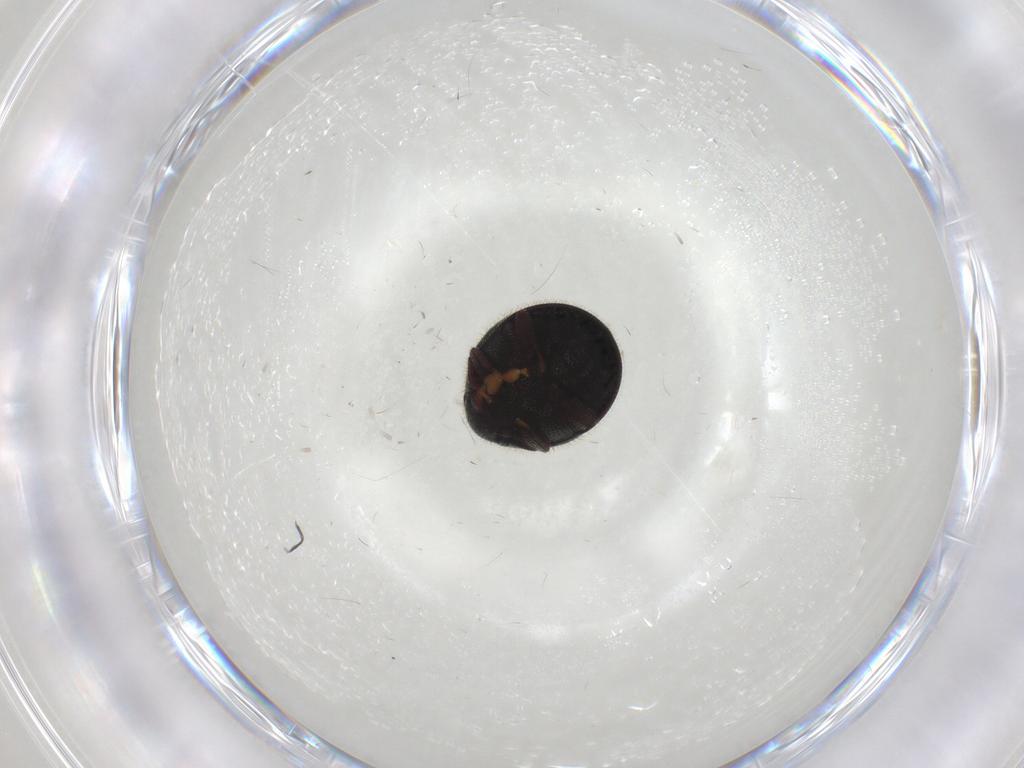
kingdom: Animalia
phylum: Arthropoda
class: Insecta
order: Coleoptera
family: Ptinidae
